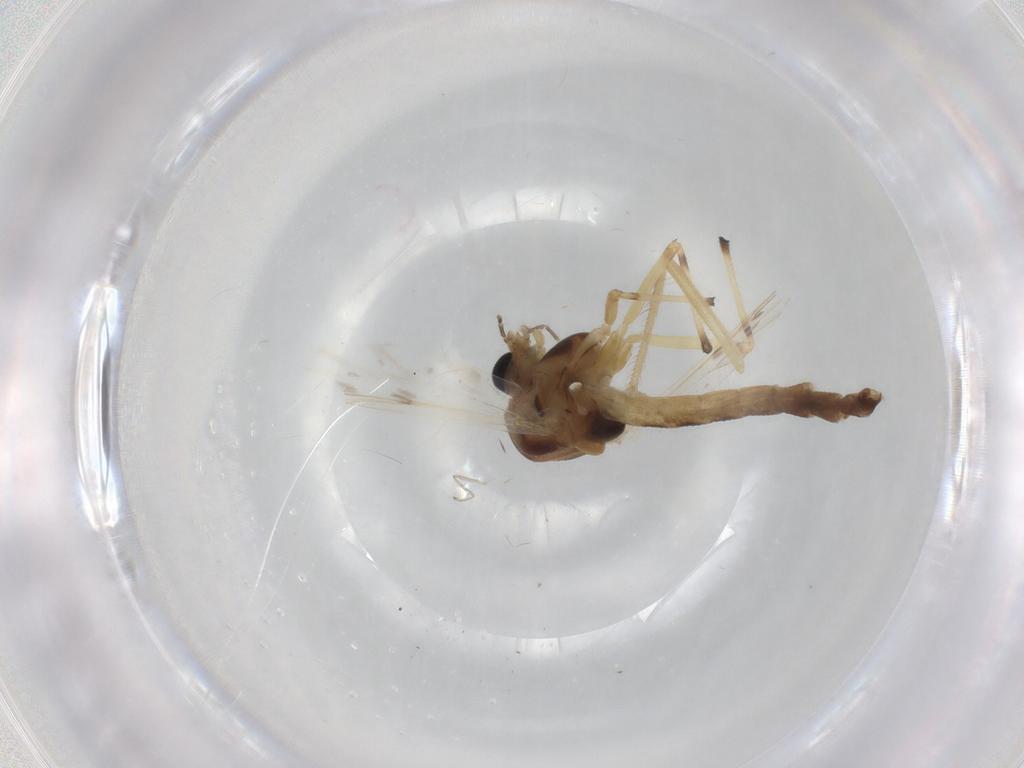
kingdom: Animalia
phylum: Arthropoda
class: Insecta
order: Diptera
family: Chironomidae
